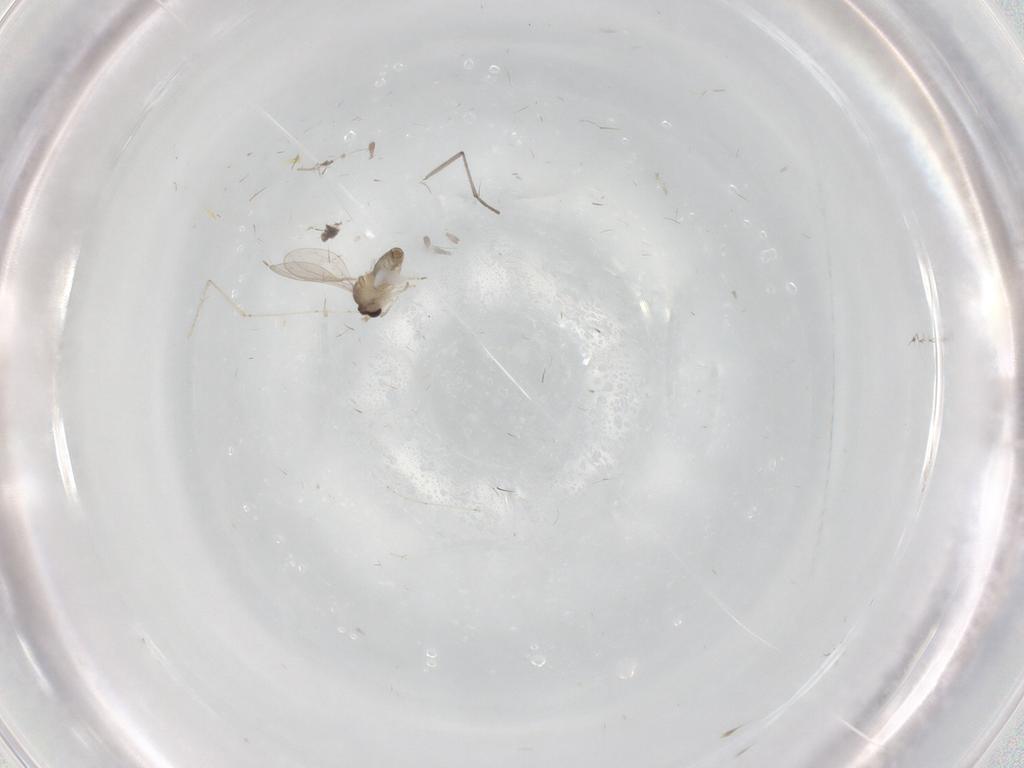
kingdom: Animalia
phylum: Arthropoda
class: Insecta
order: Diptera
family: Cecidomyiidae
